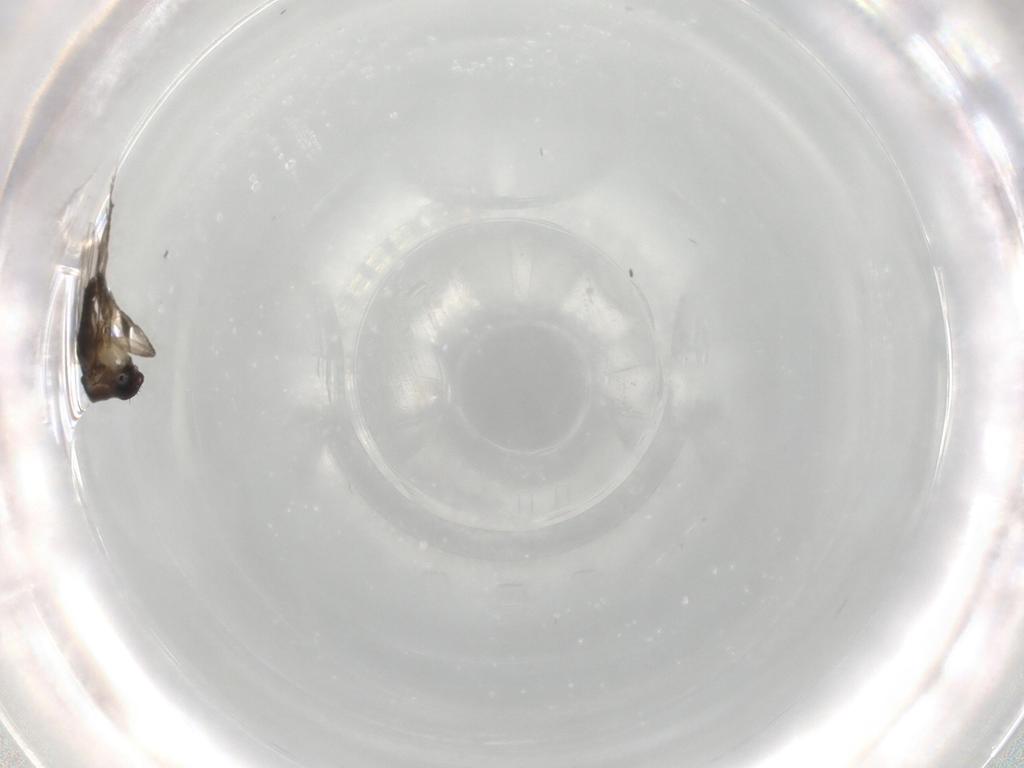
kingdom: Animalia
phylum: Arthropoda
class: Insecta
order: Diptera
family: Phoridae
